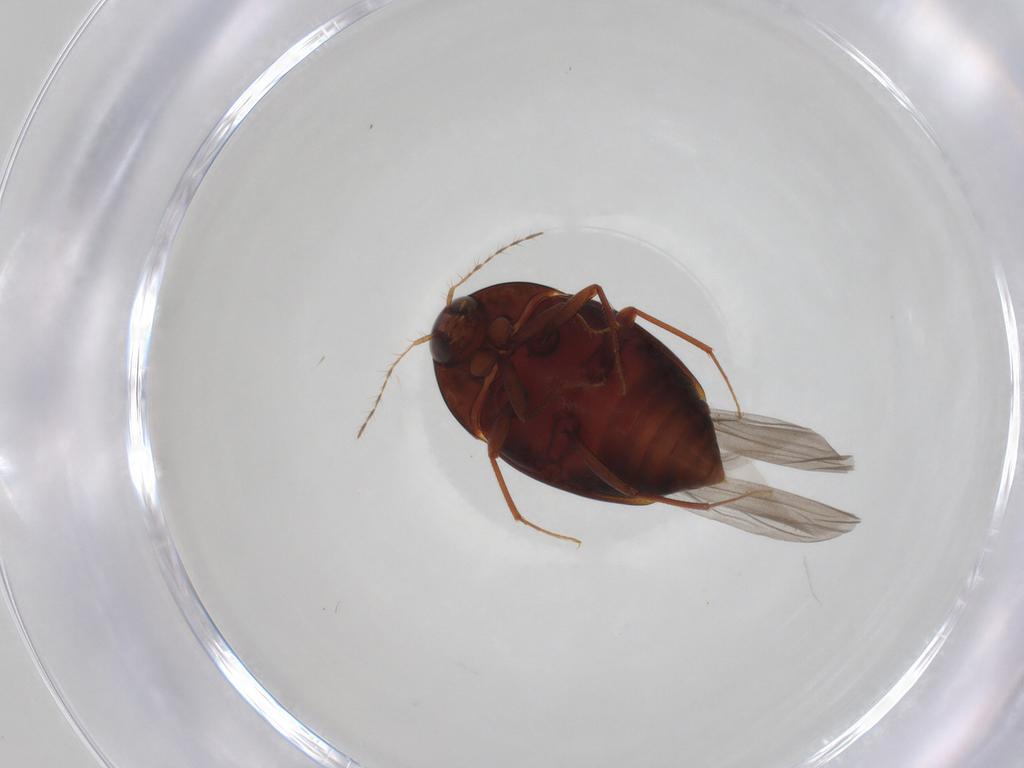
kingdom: Animalia
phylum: Arthropoda
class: Insecta
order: Coleoptera
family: Staphylinidae
